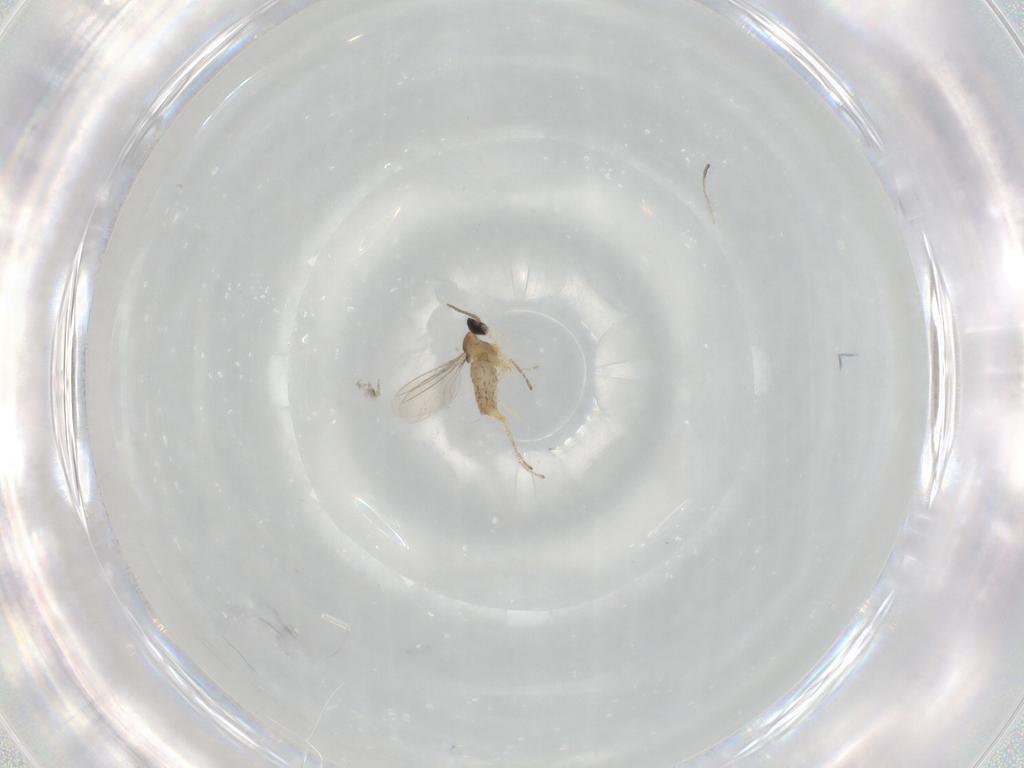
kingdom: Animalia
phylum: Arthropoda
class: Insecta
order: Diptera
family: Cecidomyiidae
